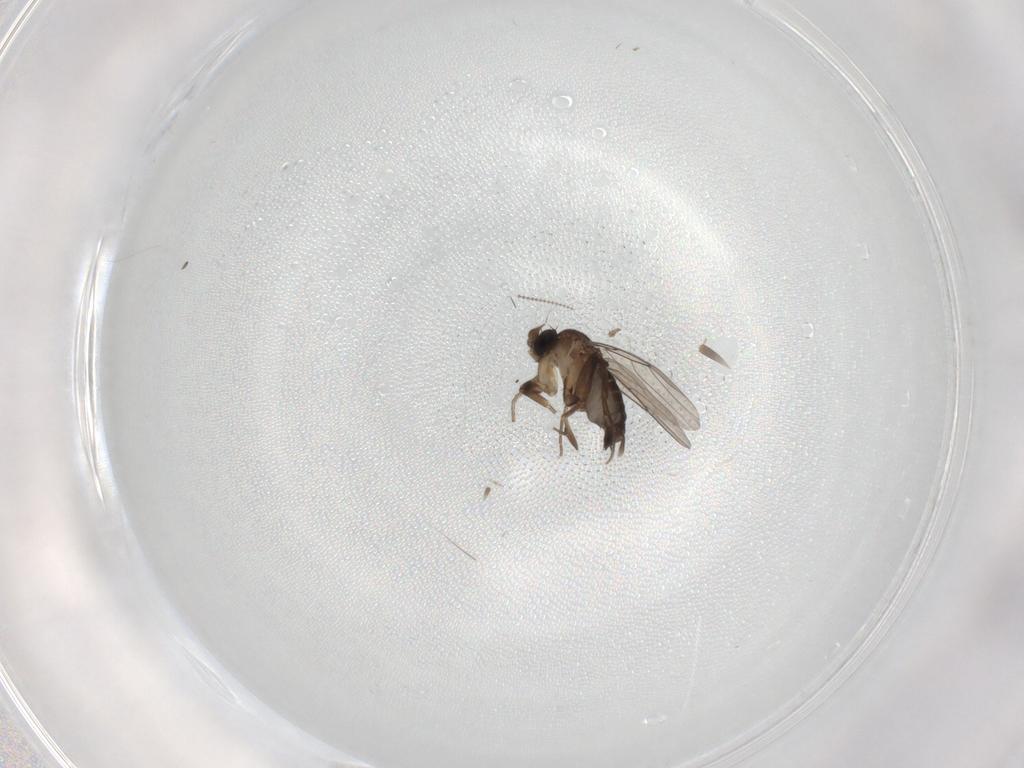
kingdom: Animalia
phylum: Arthropoda
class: Insecta
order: Diptera
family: Phoridae
